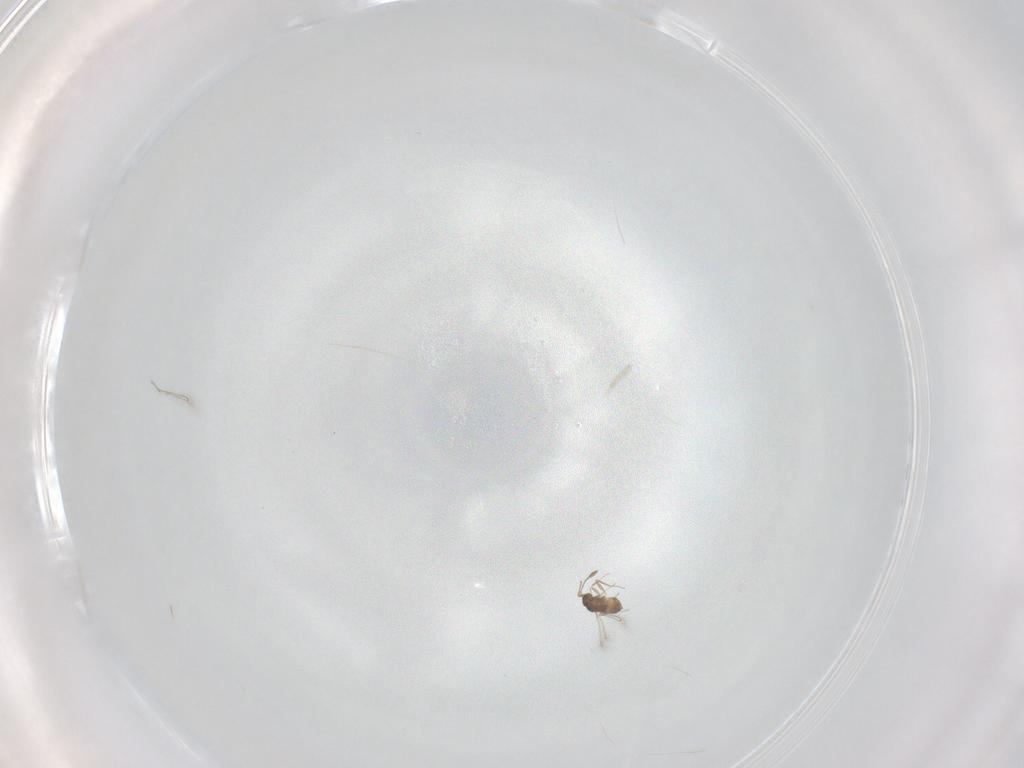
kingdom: Animalia
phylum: Arthropoda
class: Insecta
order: Hymenoptera
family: Mymaridae
